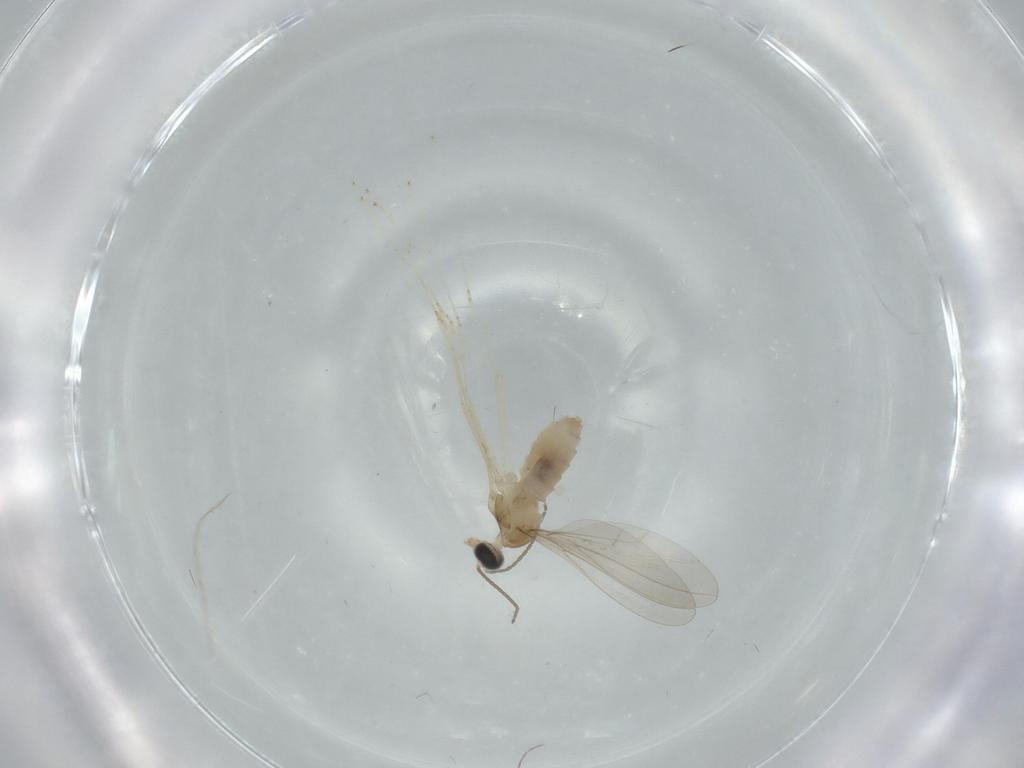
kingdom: Animalia
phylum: Arthropoda
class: Insecta
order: Diptera
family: Cecidomyiidae
